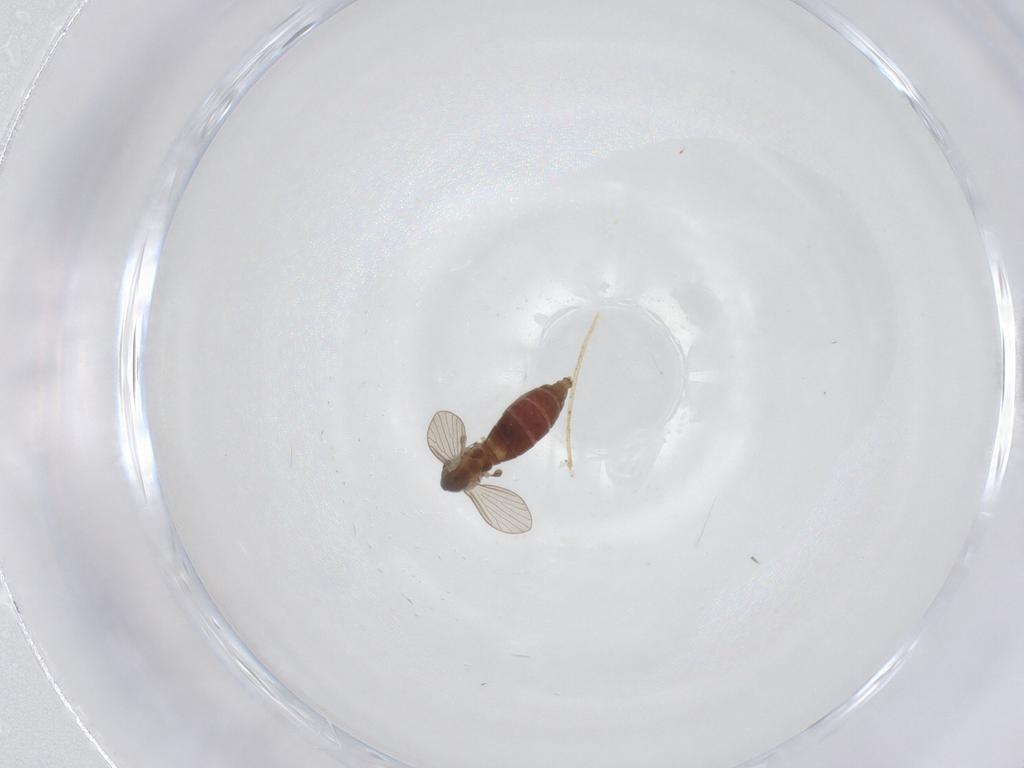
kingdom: Animalia
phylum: Arthropoda
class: Insecta
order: Diptera
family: Psychodidae
